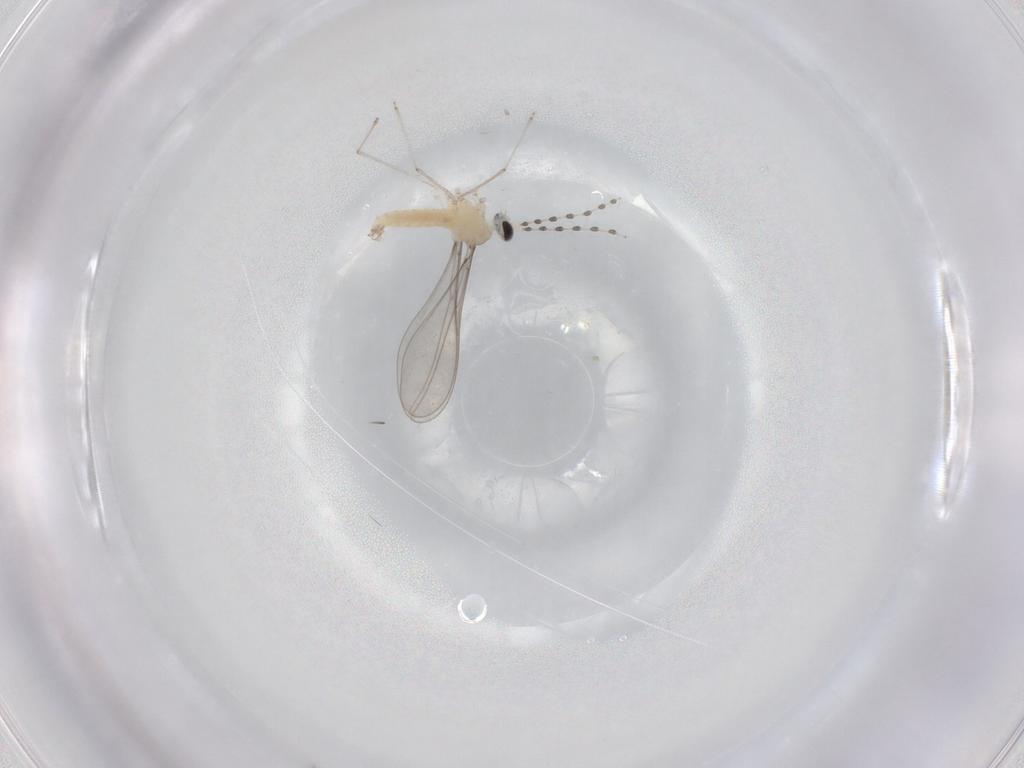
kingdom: Animalia
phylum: Arthropoda
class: Insecta
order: Diptera
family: Cecidomyiidae
